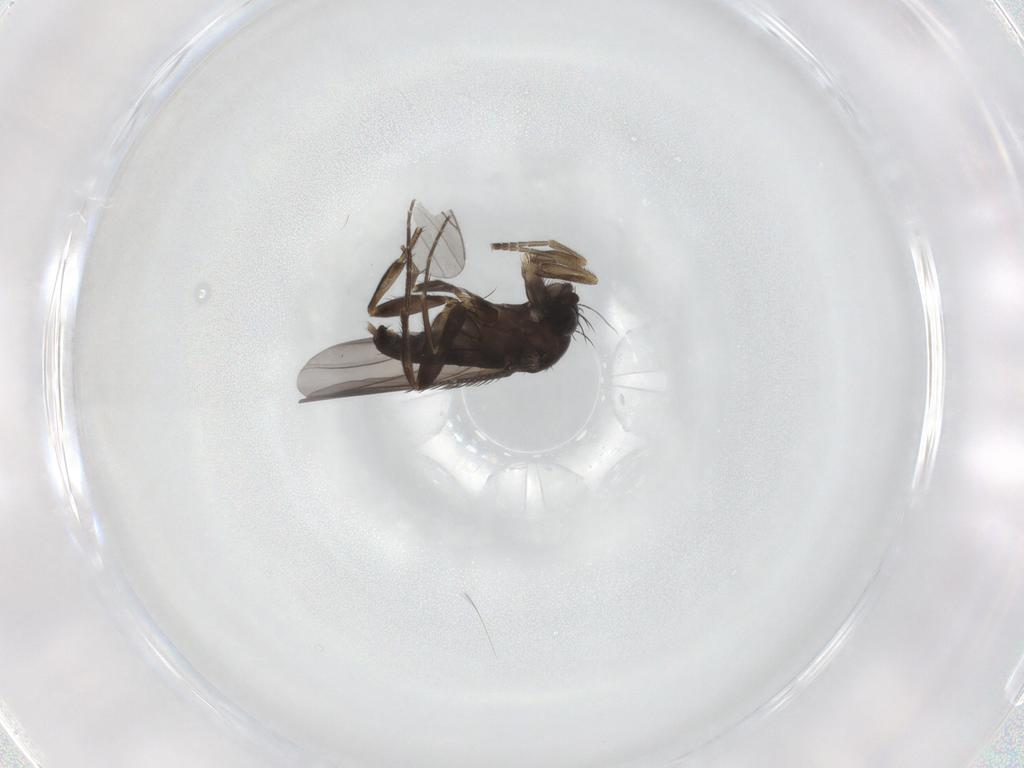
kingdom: Animalia
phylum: Arthropoda
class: Insecta
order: Diptera
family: Phoridae
